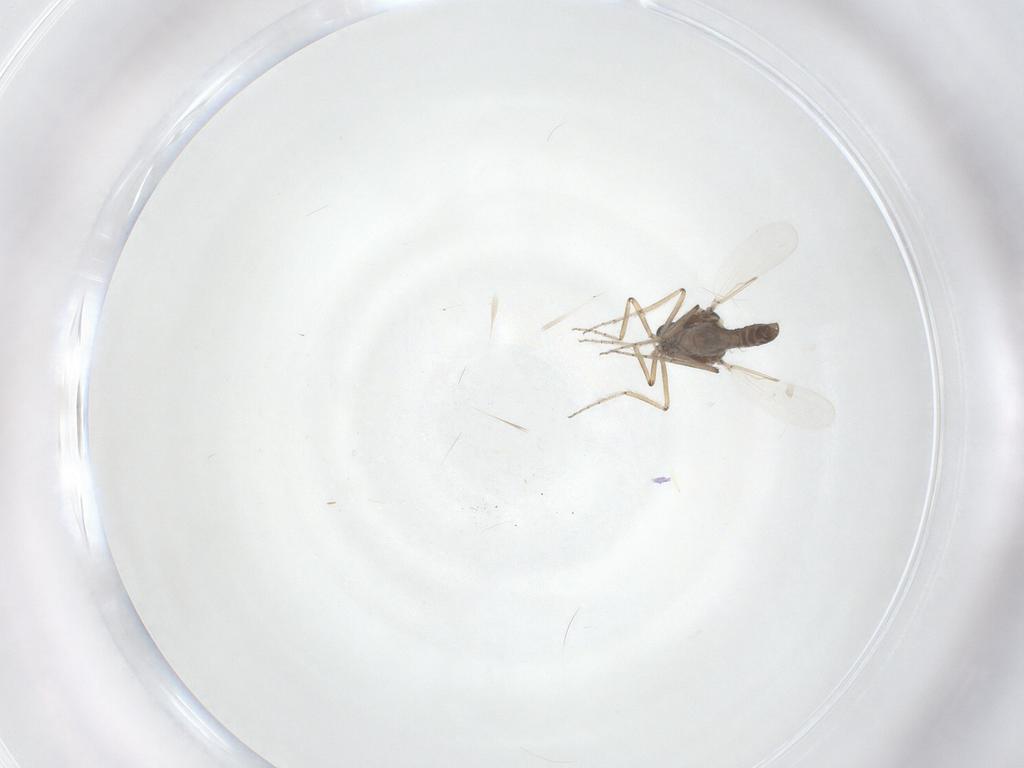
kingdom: Animalia
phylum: Arthropoda
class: Insecta
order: Diptera
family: Ceratopogonidae
